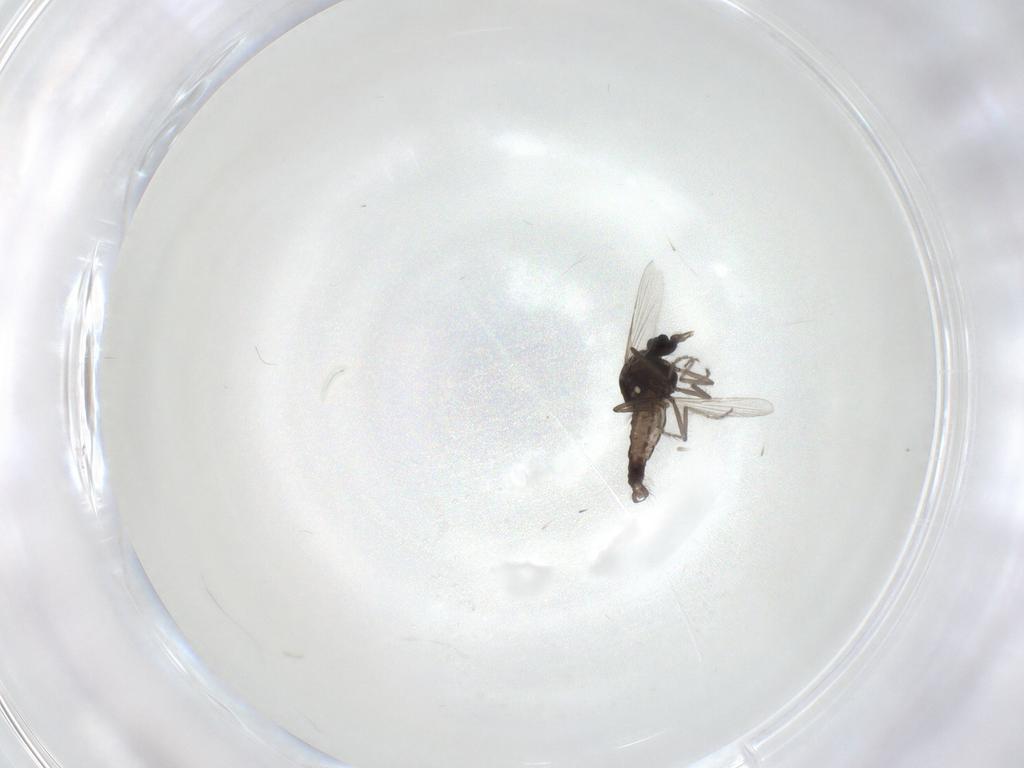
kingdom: Animalia
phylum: Arthropoda
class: Insecta
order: Diptera
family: Ceratopogonidae
